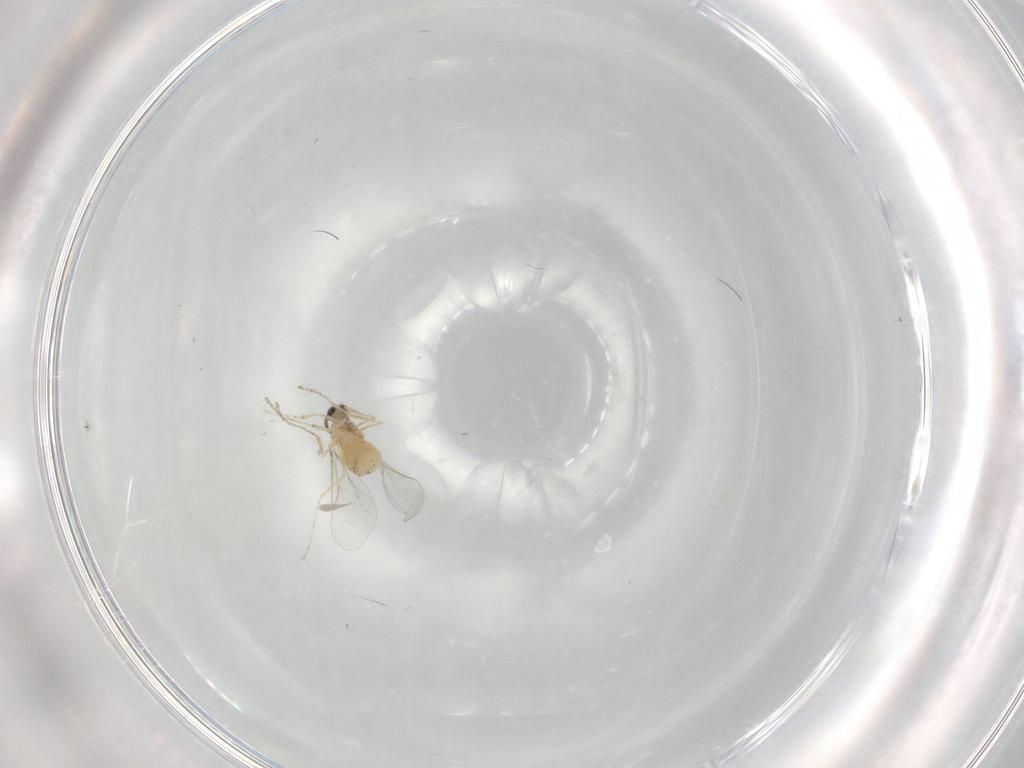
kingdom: Animalia
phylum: Arthropoda
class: Insecta
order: Diptera
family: Cecidomyiidae
